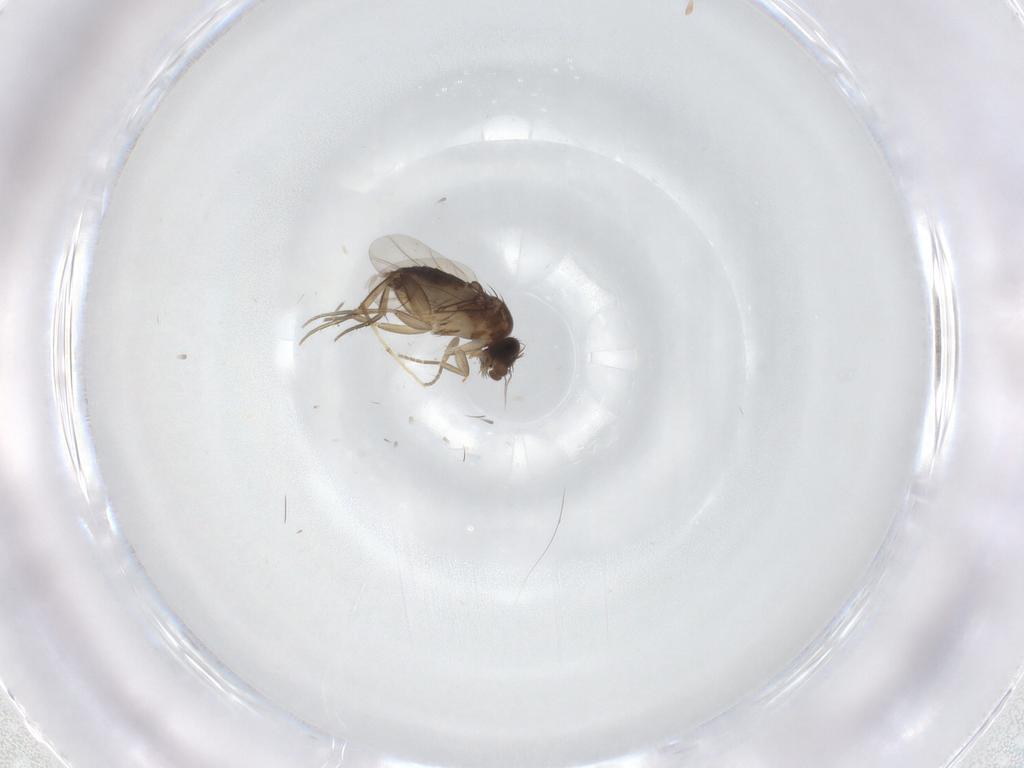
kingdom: Animalia
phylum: Arthropoda
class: Insecta
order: Diptera
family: Phoridae
